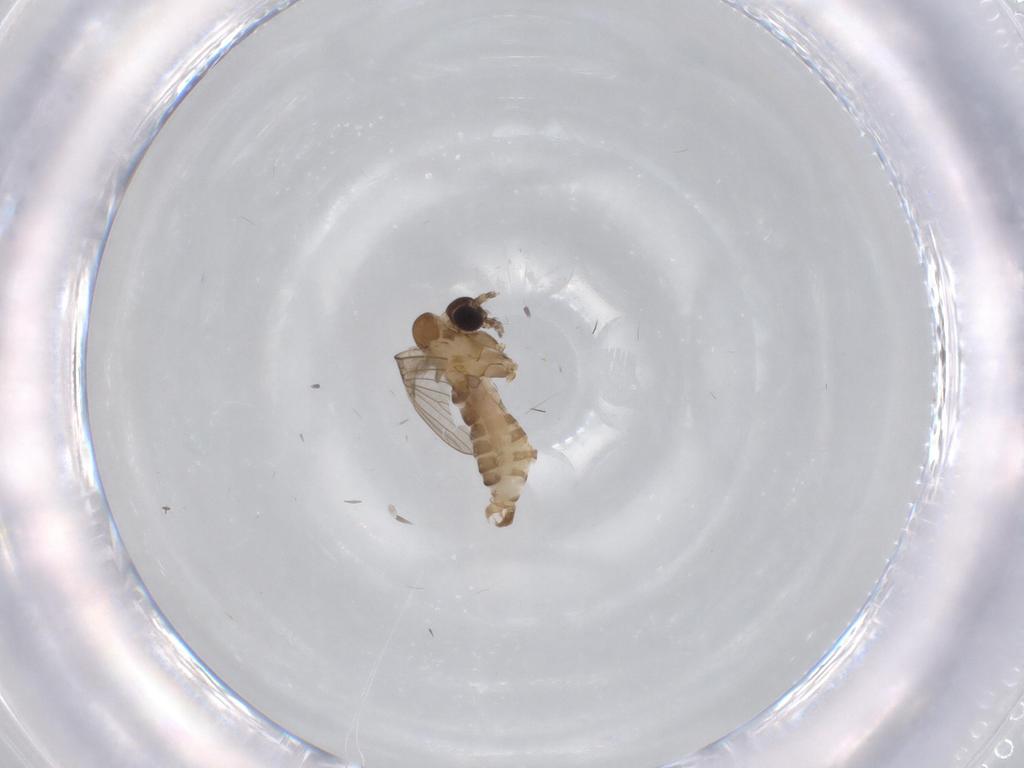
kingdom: Animalia
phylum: Arthropoda
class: Insecta
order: Diptera
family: Psychodidae
